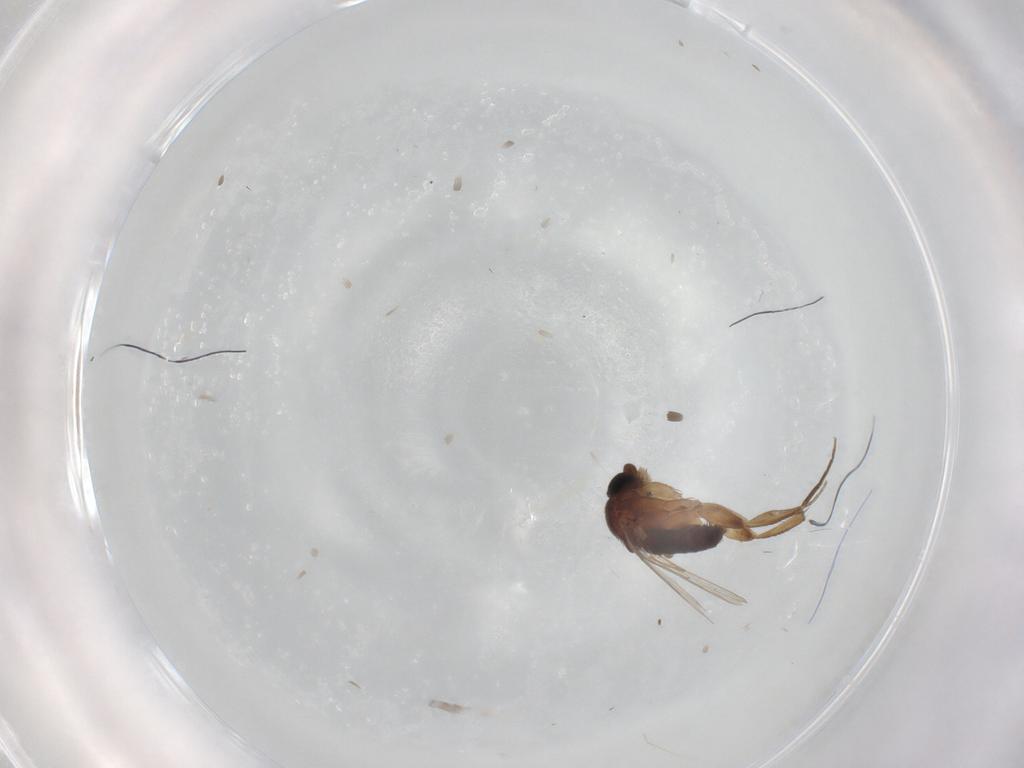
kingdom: Animalia
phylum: Arthropoda
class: Insecta
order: Diptera
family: Phoridae
